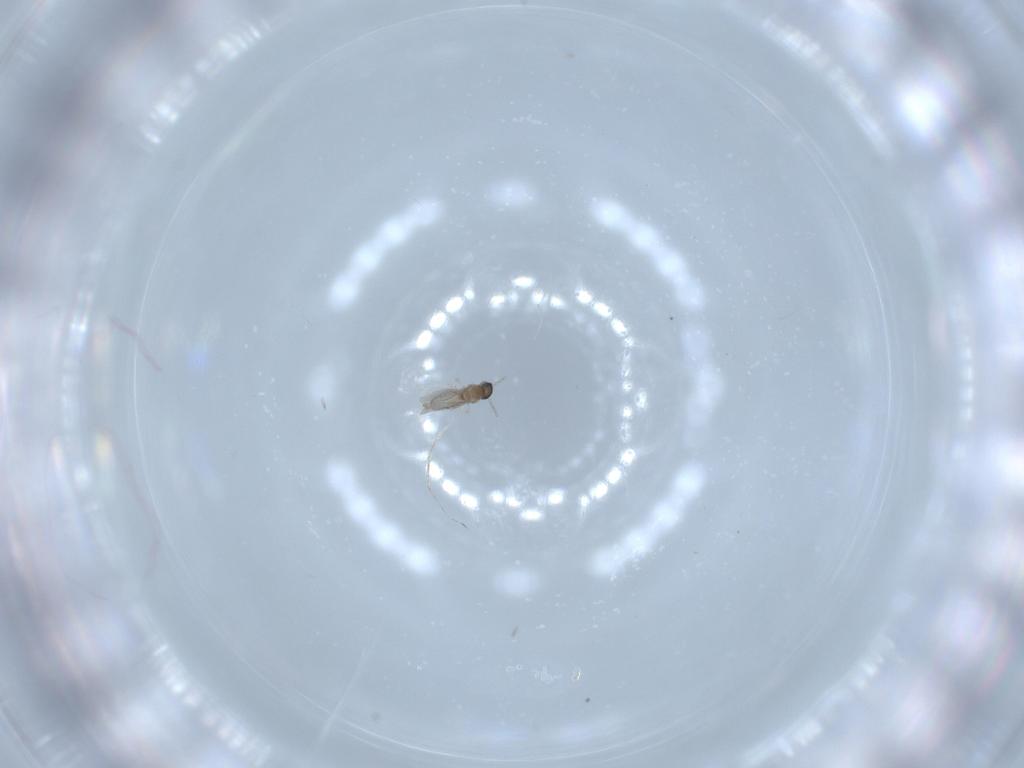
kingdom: Animalia
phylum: Arthropoda
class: Insecta
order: Diptera
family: Cecidomyiidae
